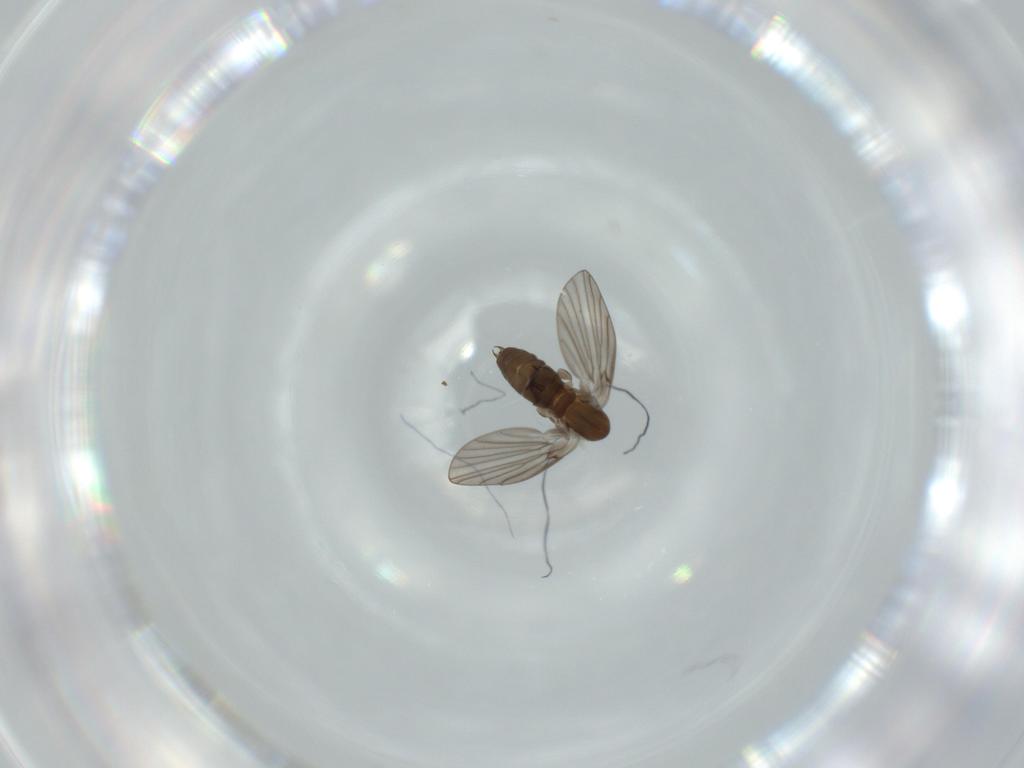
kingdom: Animalia
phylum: Arthropoda
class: Insecta
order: Diptera
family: Psychodidae
